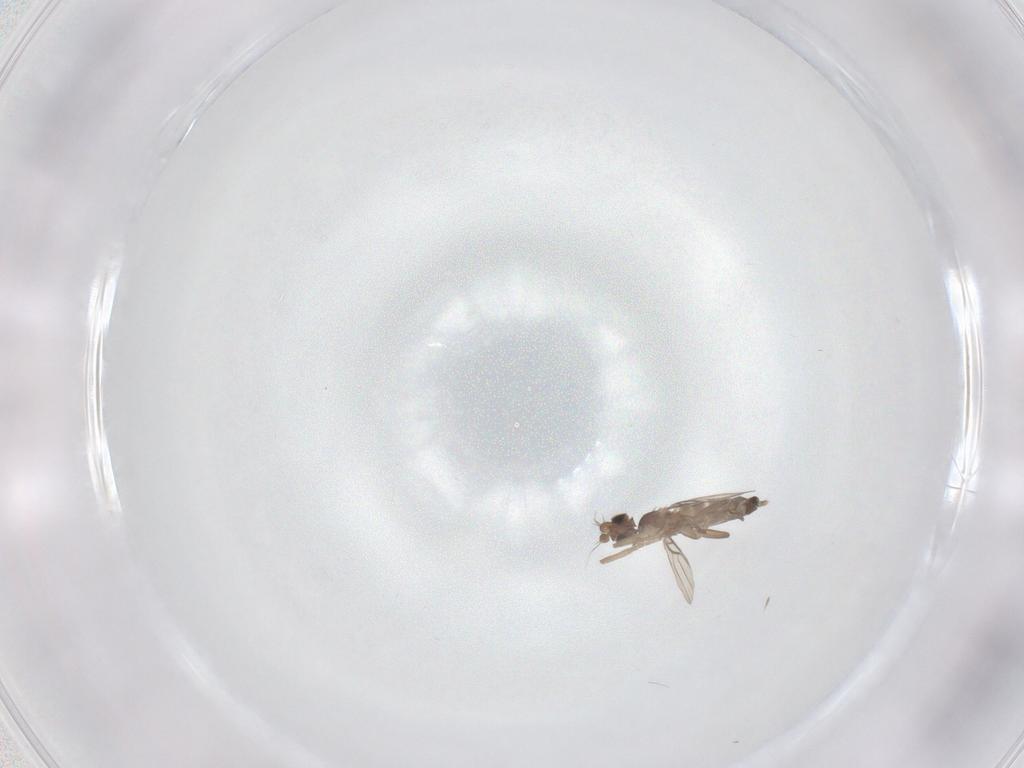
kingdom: Animalia
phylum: Arthropoda
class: Insecta
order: Diptera
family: Phoridae
